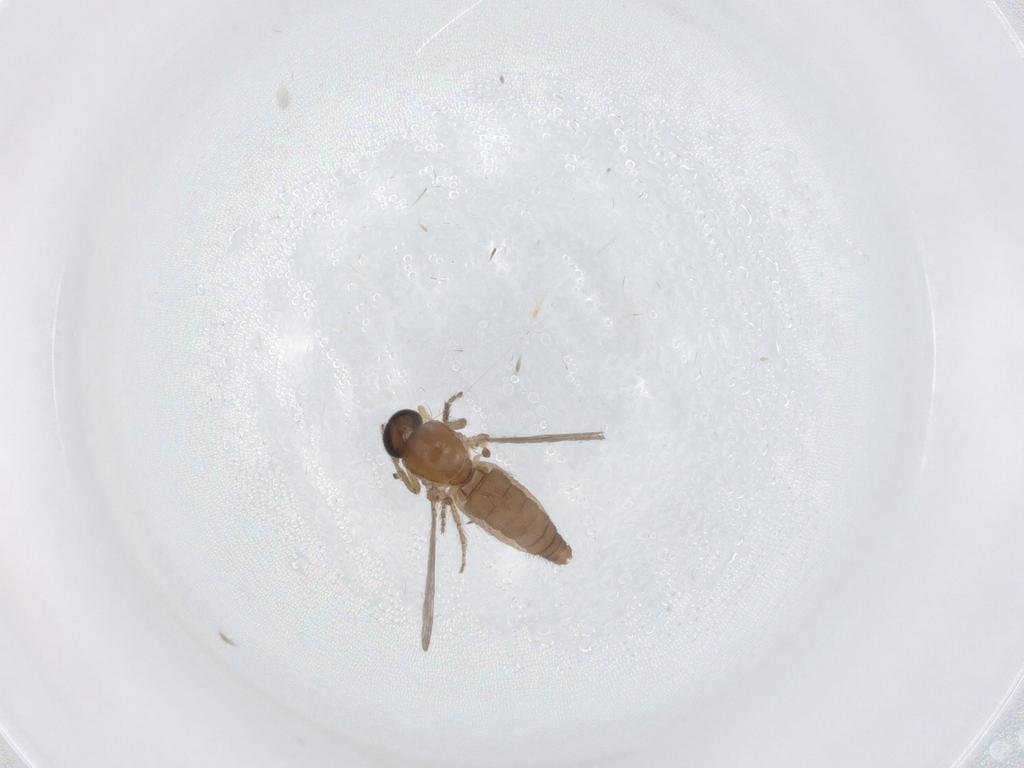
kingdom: Animalia
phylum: Arthropoda
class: Insecta
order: Diptera
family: Ceratopogonidae
